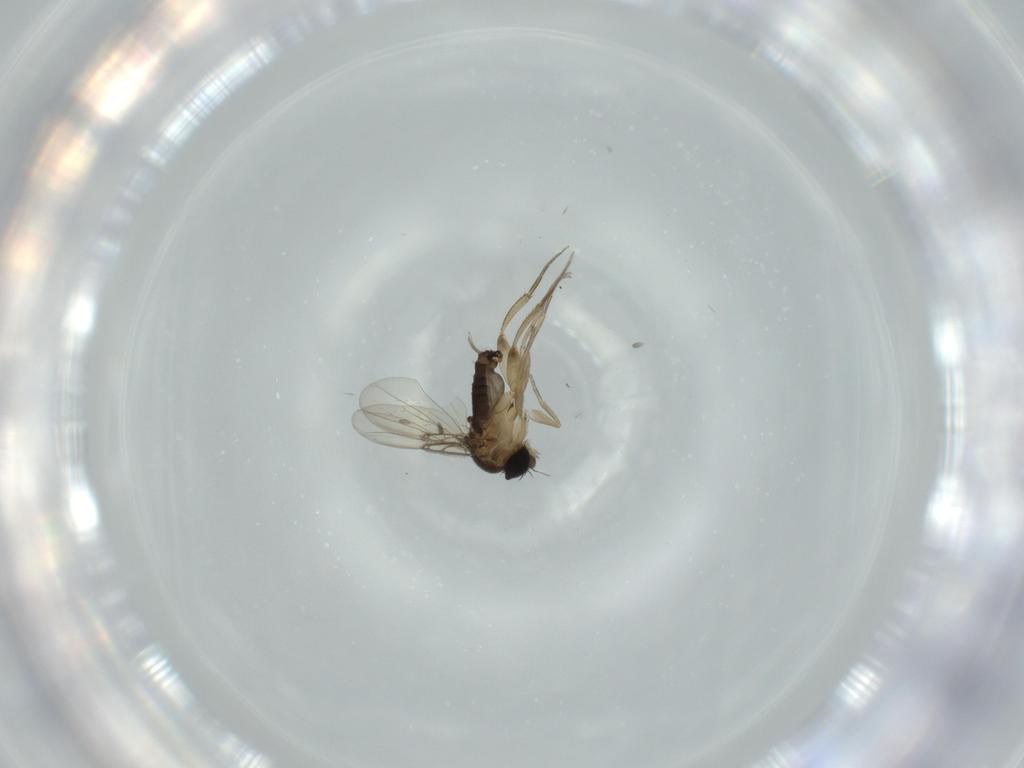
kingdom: Animalia
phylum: Arthropoda
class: Insecta
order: Diptera
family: Phoridae
